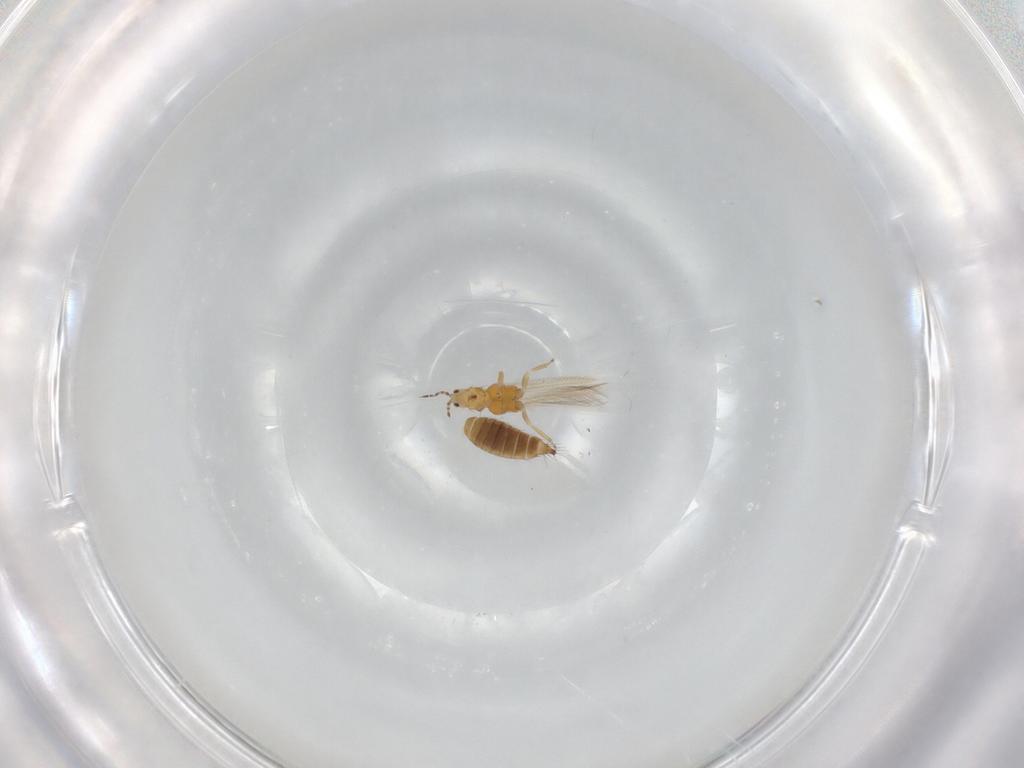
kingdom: Animalia
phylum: Arthropoda
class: Insecta
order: Thysanoptera
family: Thripidae
